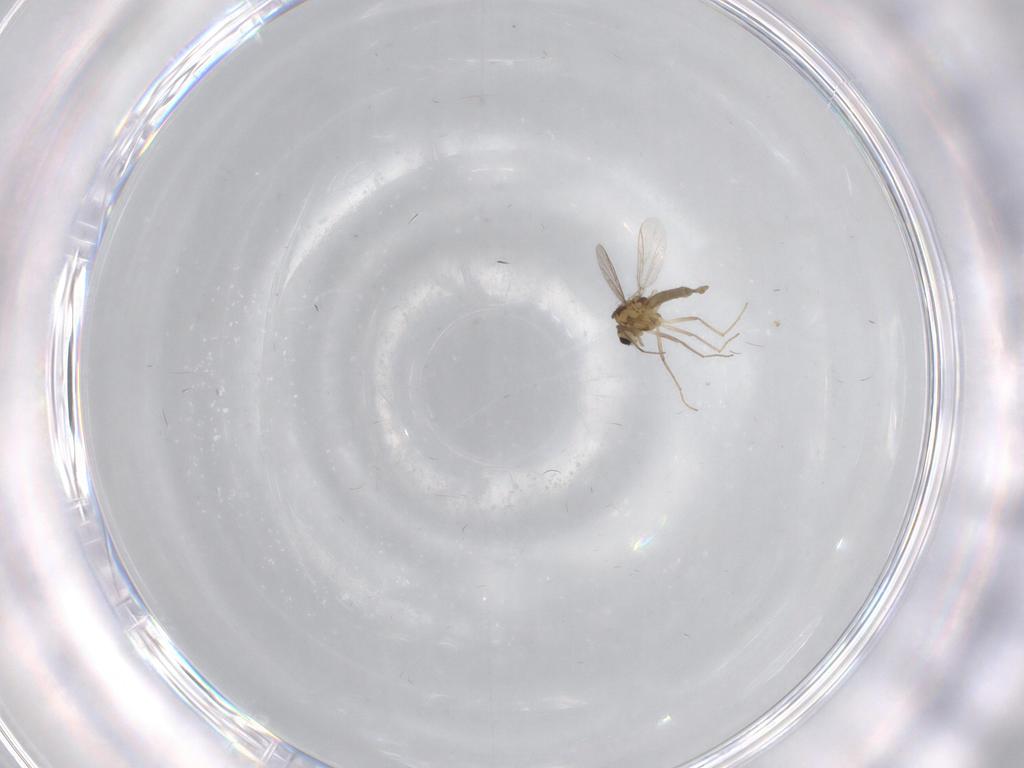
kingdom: Animalia
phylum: Arthropoda
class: Insecta
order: Diptera
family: Chironomidae
